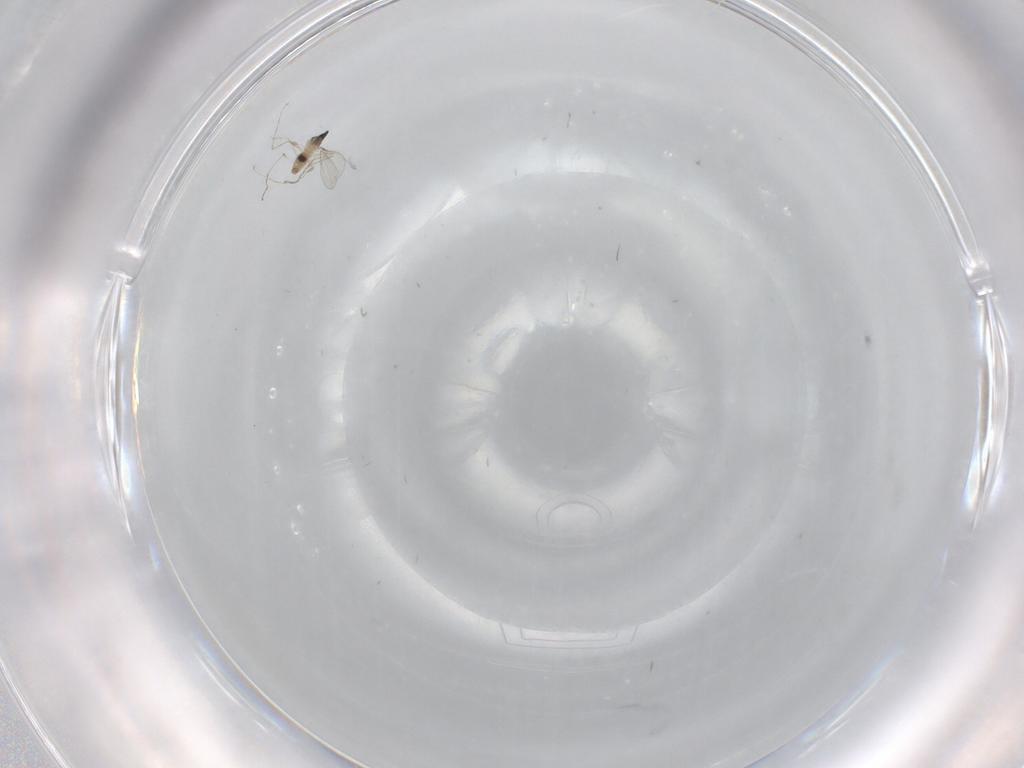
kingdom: Animalia
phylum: Arthropoda
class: Insecta
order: Diptera
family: Cecidomyiidae
